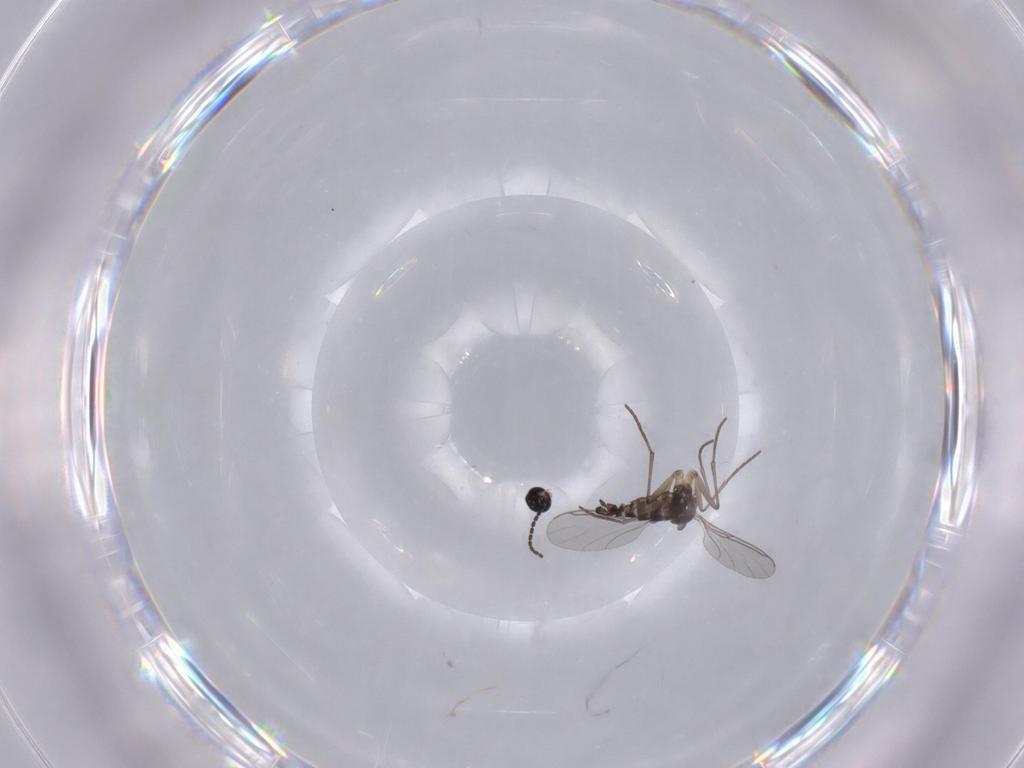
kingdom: Animalia
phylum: Arthropoda
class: Insecta
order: Diptera
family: Sciaridae
